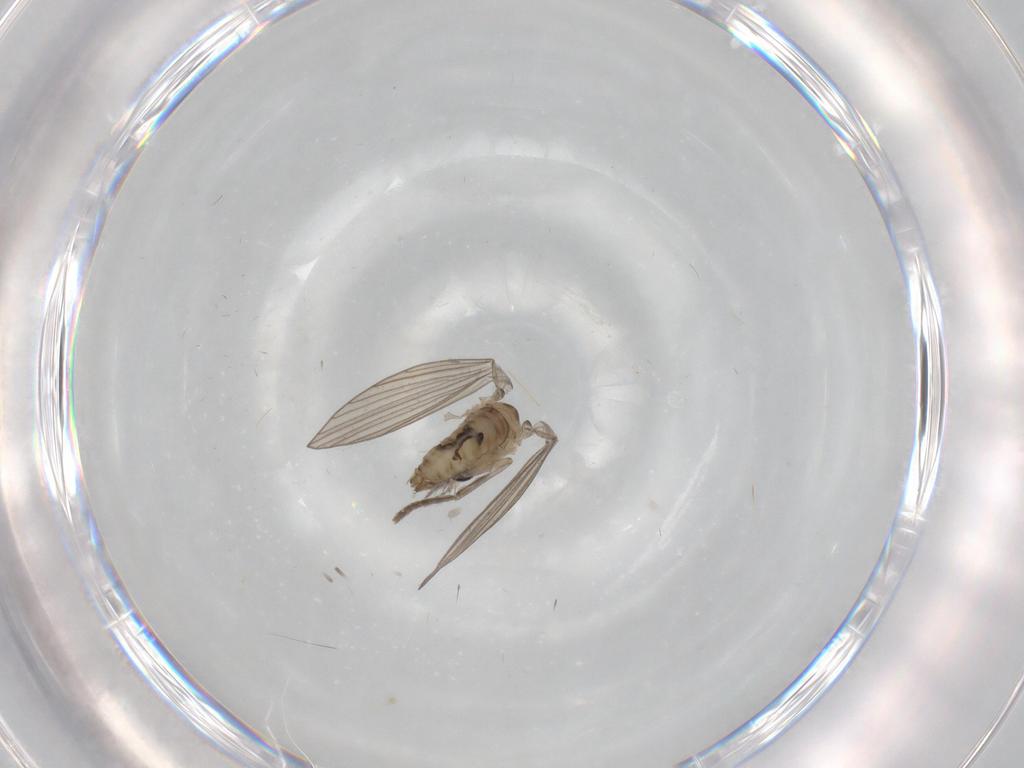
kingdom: Animalia
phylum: Arthropoda
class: Insecta
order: Diptera
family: Psychodidae
